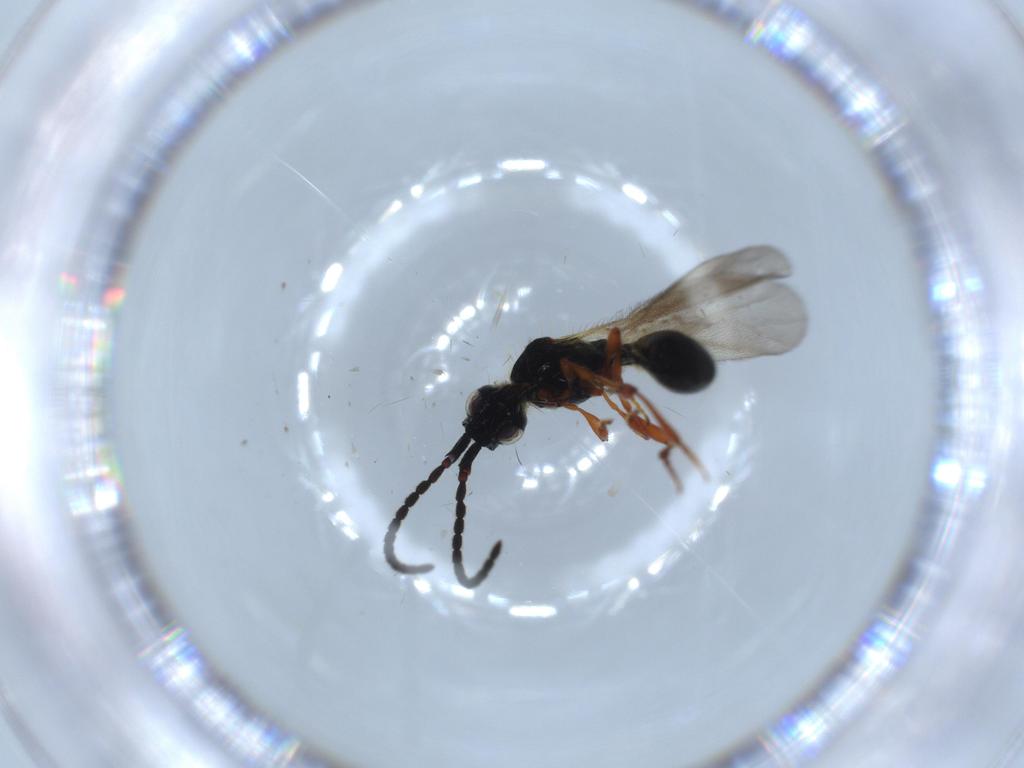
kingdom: Animalia
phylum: Arthropoda
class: Insecta
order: Hymenoptera
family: Diapriidae
